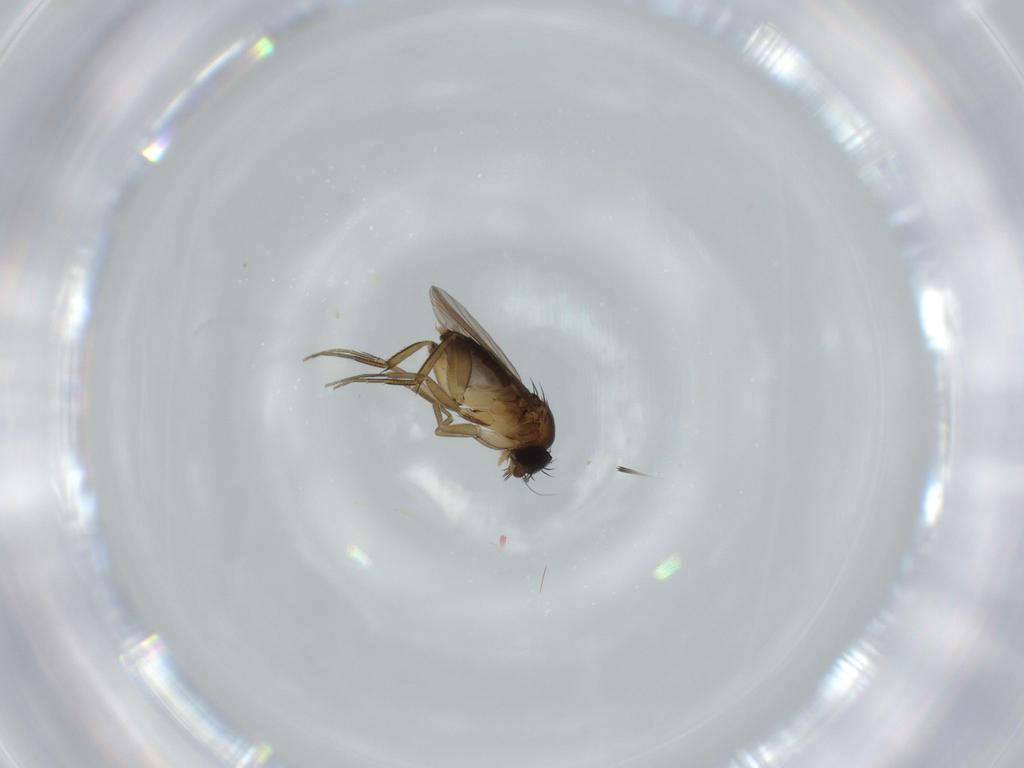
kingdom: Animalia
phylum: Arthropoda
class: Insecta
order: Diptera
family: Phoridae
